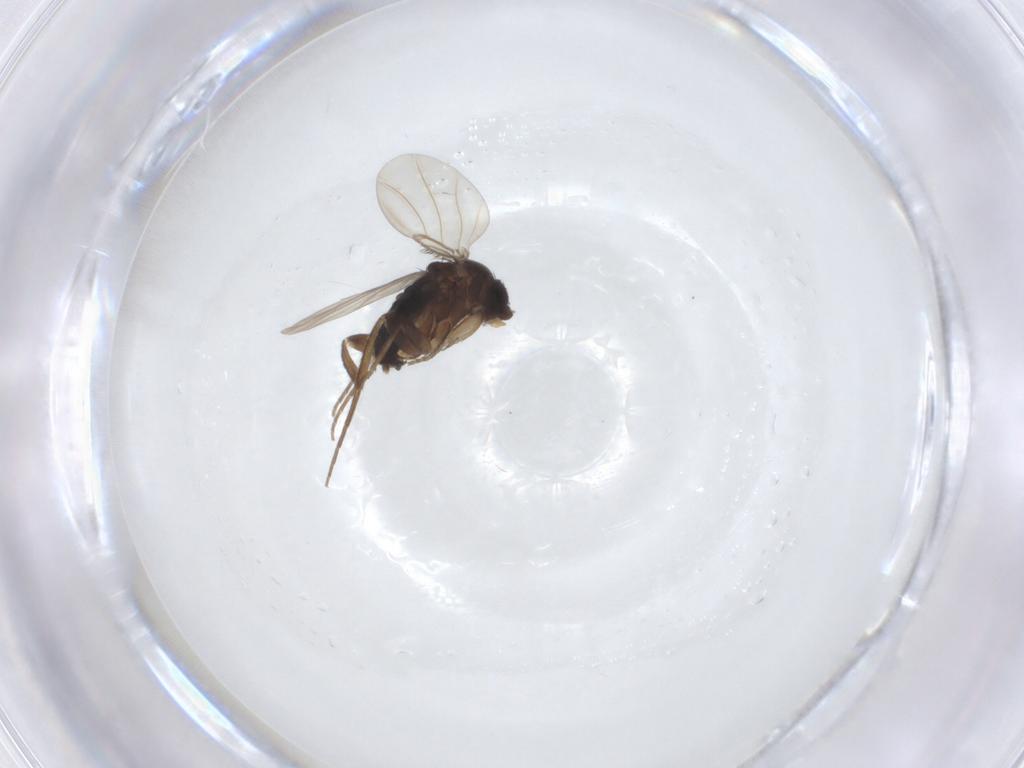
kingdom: Animalia
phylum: Arthropoda
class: Insecta
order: Diptera
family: Phoridae
